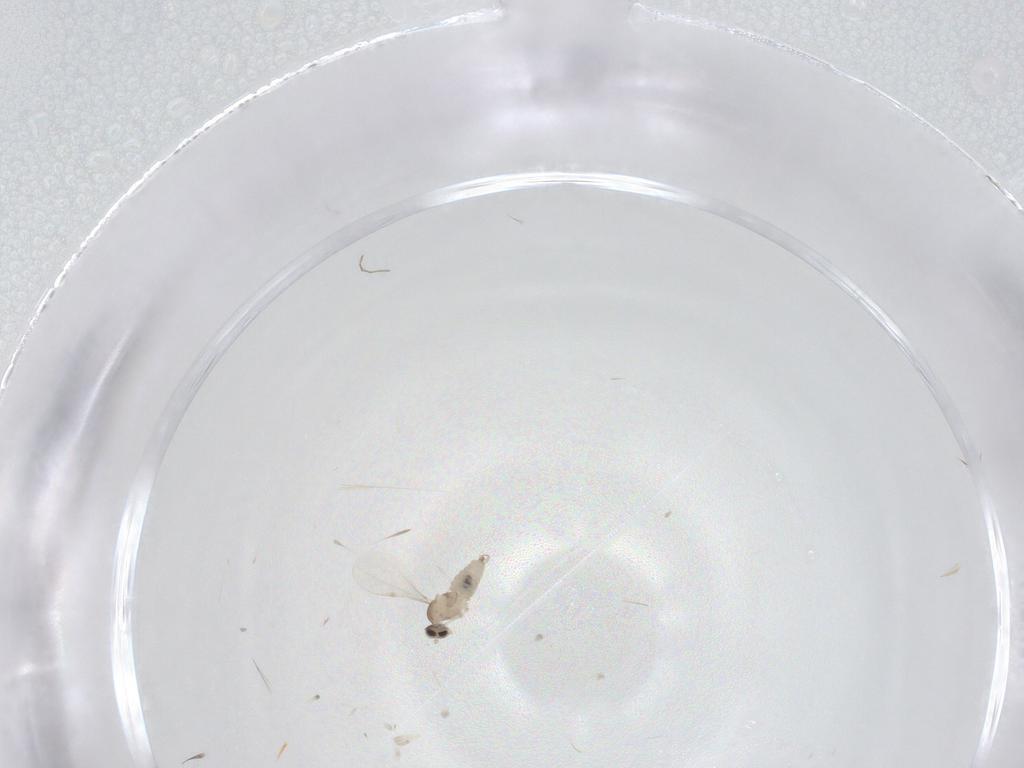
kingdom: Animalia
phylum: Arthropoda
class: Insecta
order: Diptera
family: Cecidomyiidae
